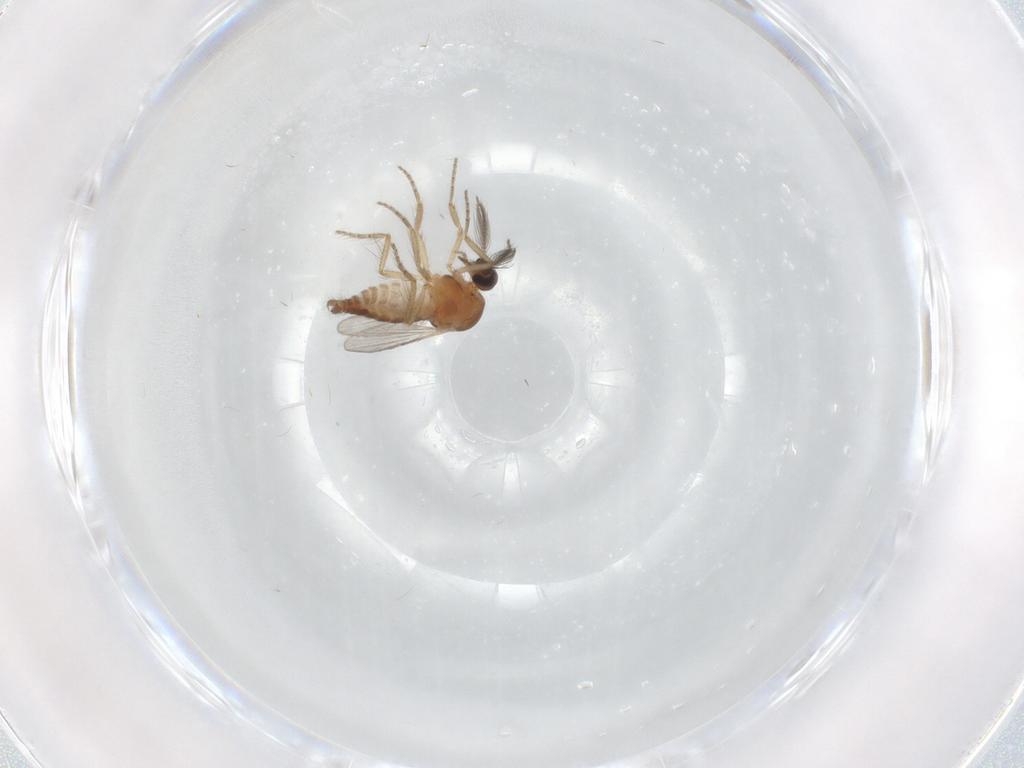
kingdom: Animalia
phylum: Arthropoda
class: Insecta
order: Diptera
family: Ceratopogonidae
